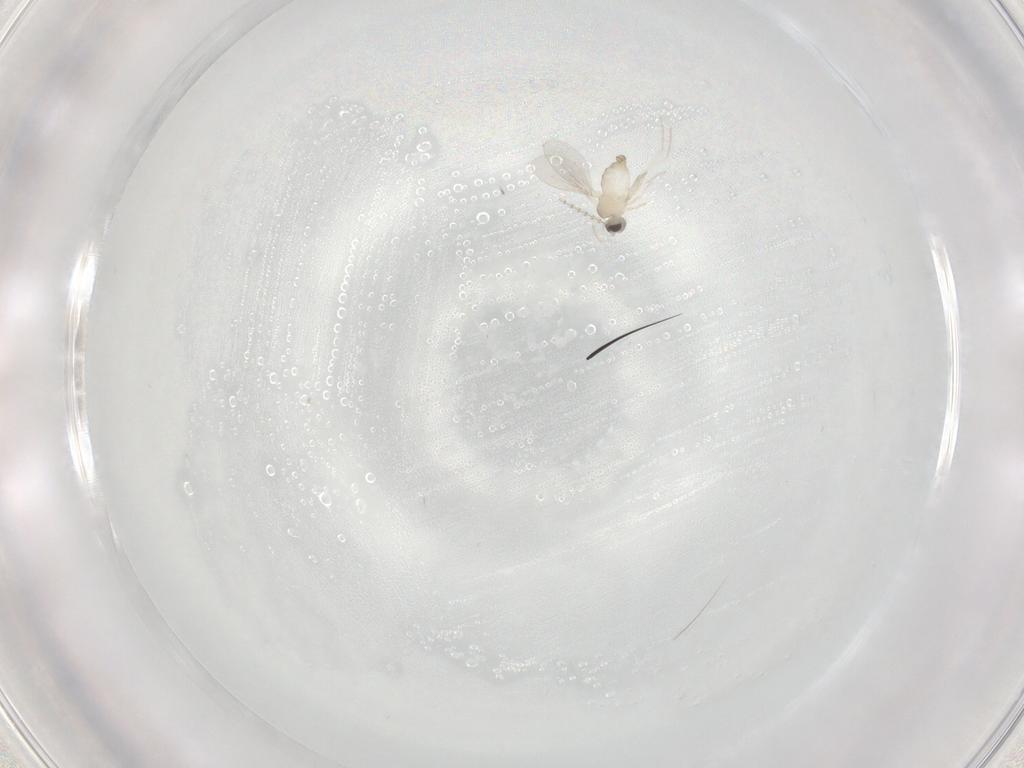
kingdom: Animalia
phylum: Arthropoda
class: Insecta
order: Diptera
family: Cecidomyiidae
